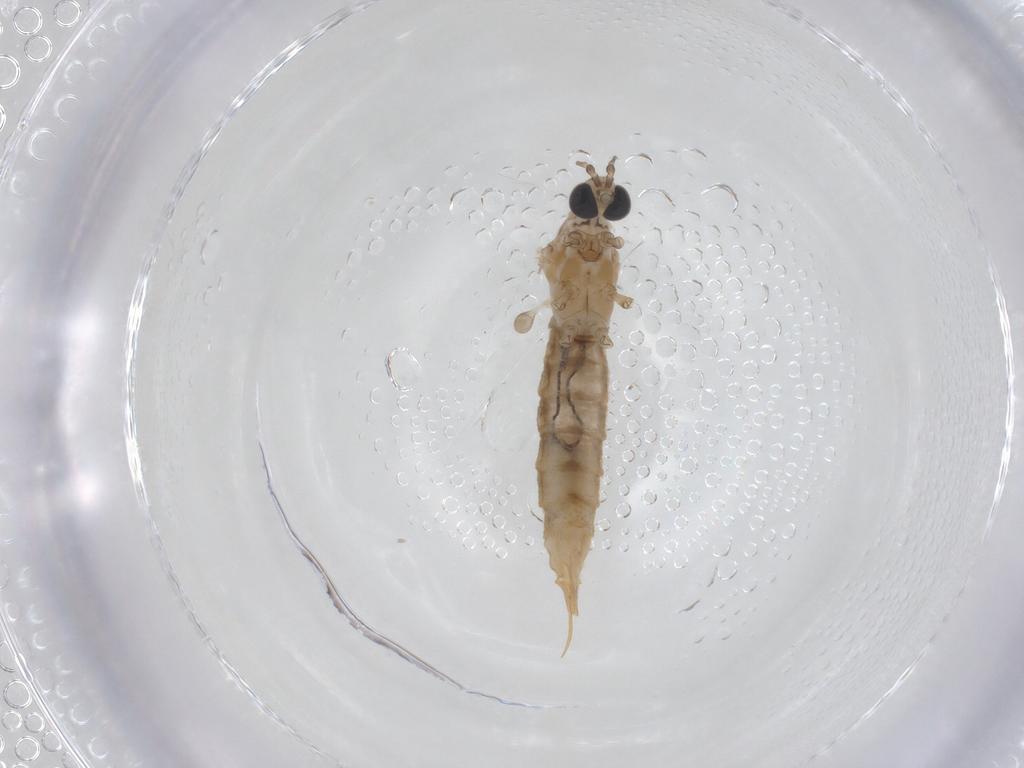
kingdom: Animalia
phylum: Arthropoda
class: Insecta
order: Diptera
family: Limoniidae
